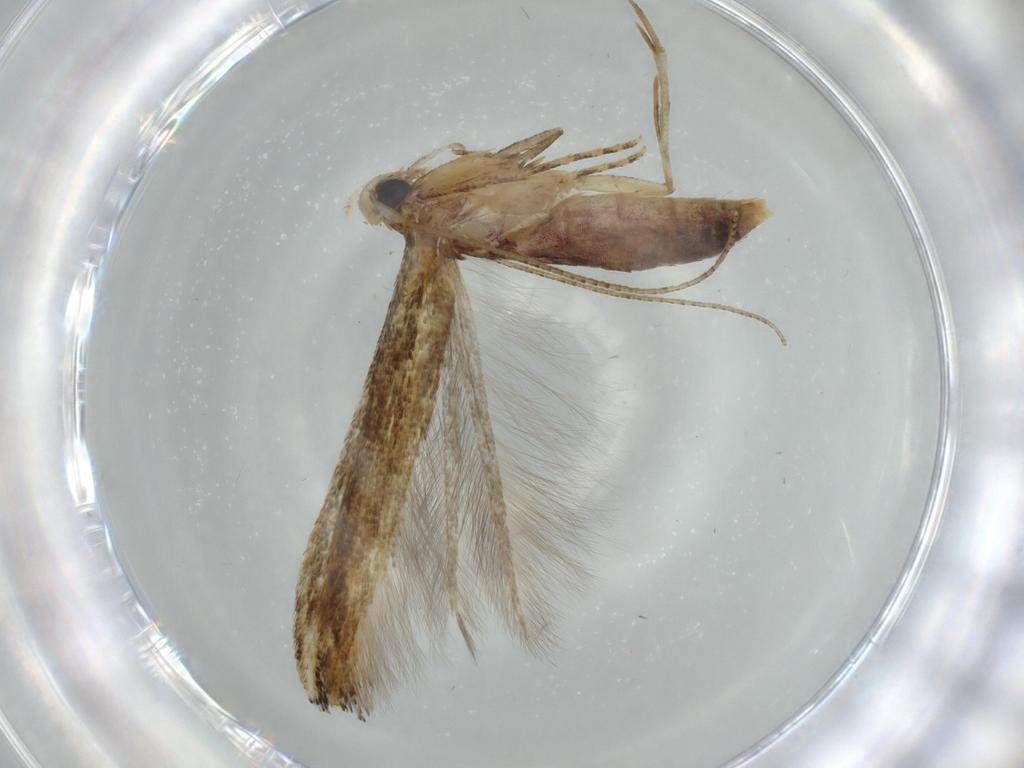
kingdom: Animalia
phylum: Arthropoda
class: Insecta
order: Lepidoptera
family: Cosmopterigidae
